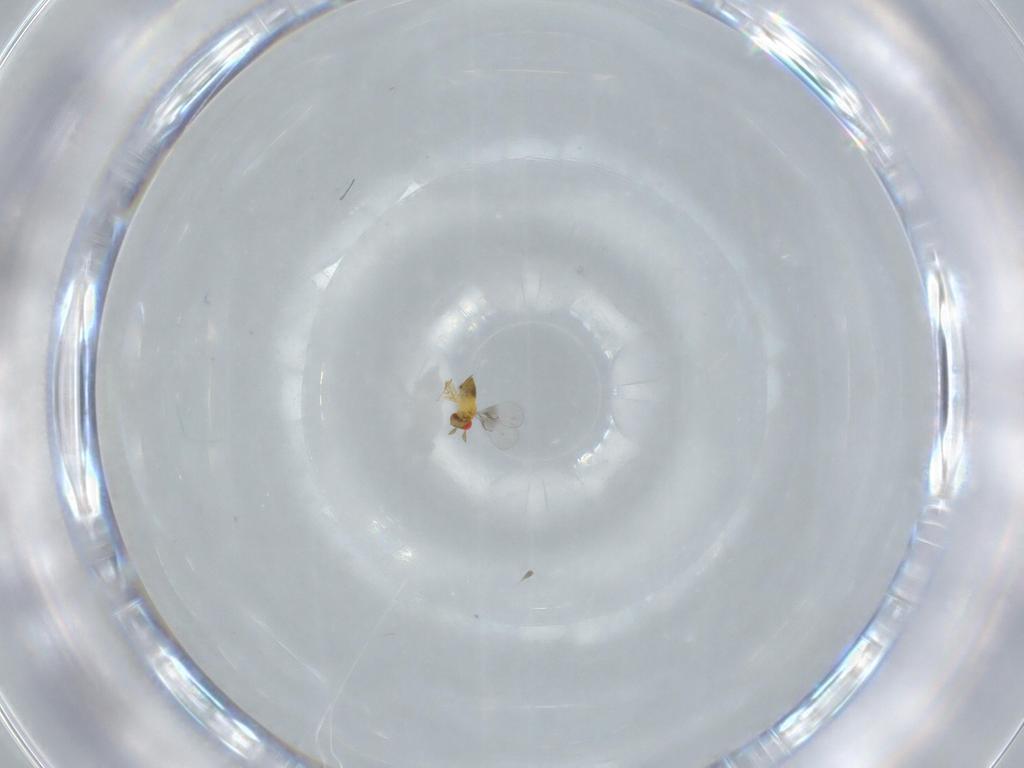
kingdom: Animalia
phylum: Arthropoda
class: Insecta
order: Hymenoptera
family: Trichogrammatidae
